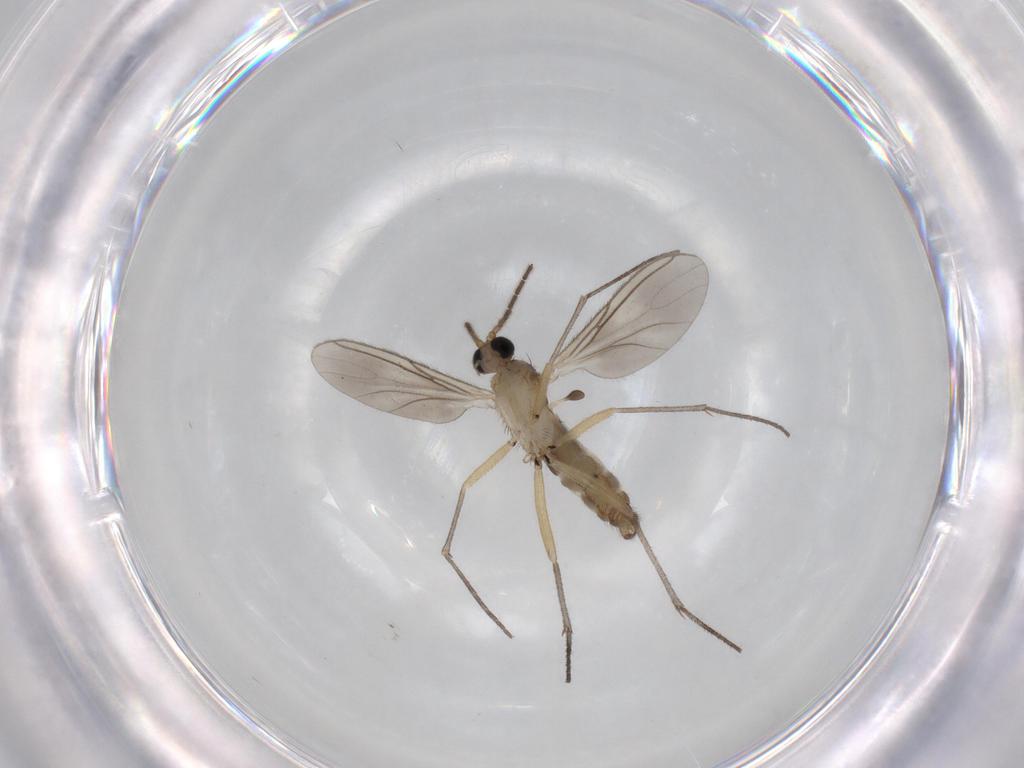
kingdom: Animalia
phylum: Arthropoda
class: Insecta
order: Diptera
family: Sciaridae
